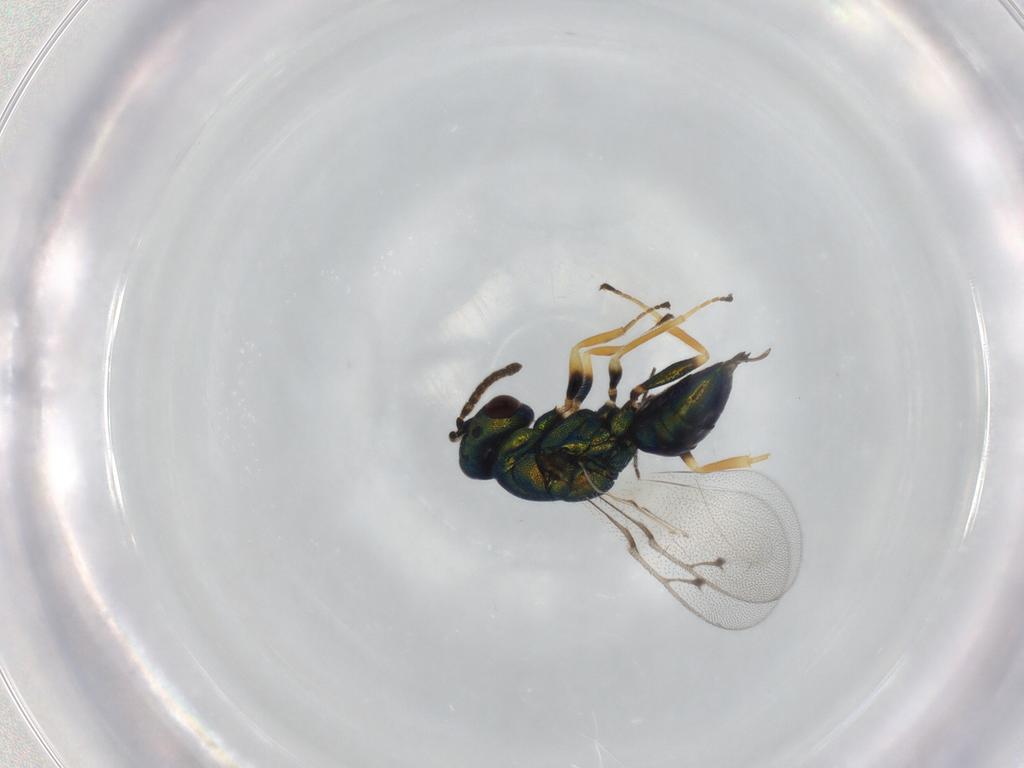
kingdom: Animalia
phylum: Arthropoda
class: Insecta
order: Hymenoptera
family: Pteromalidae
